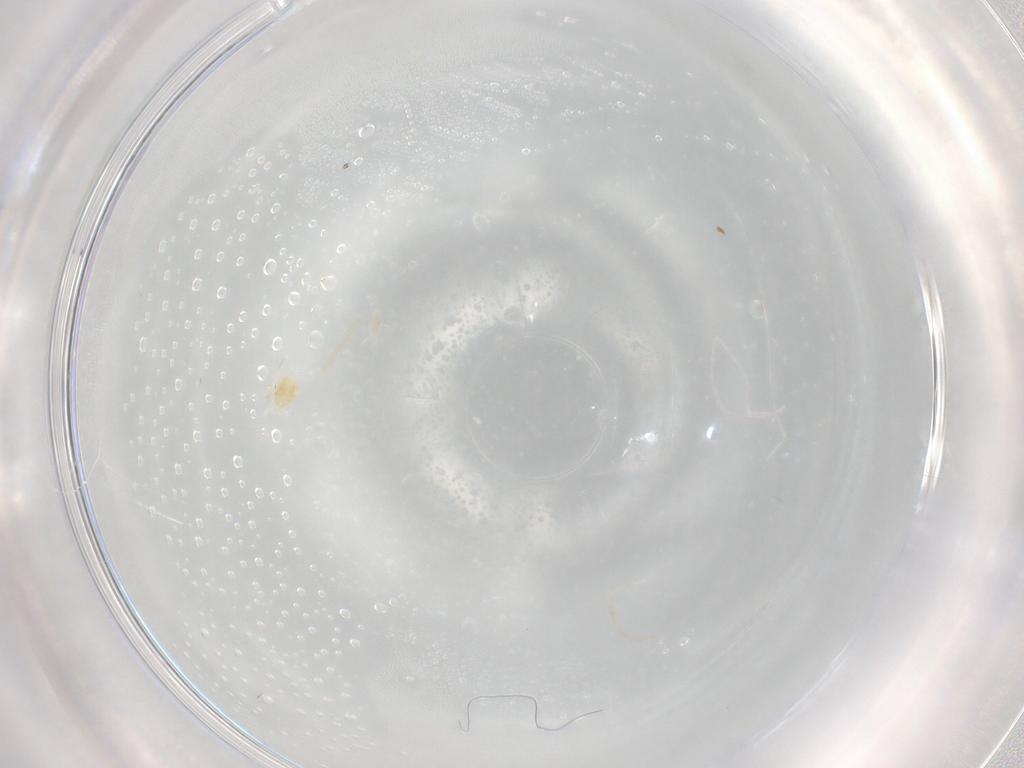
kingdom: Animalia
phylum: Arthropoda
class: Arachnida
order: Trombidiformes
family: Eupodidae
